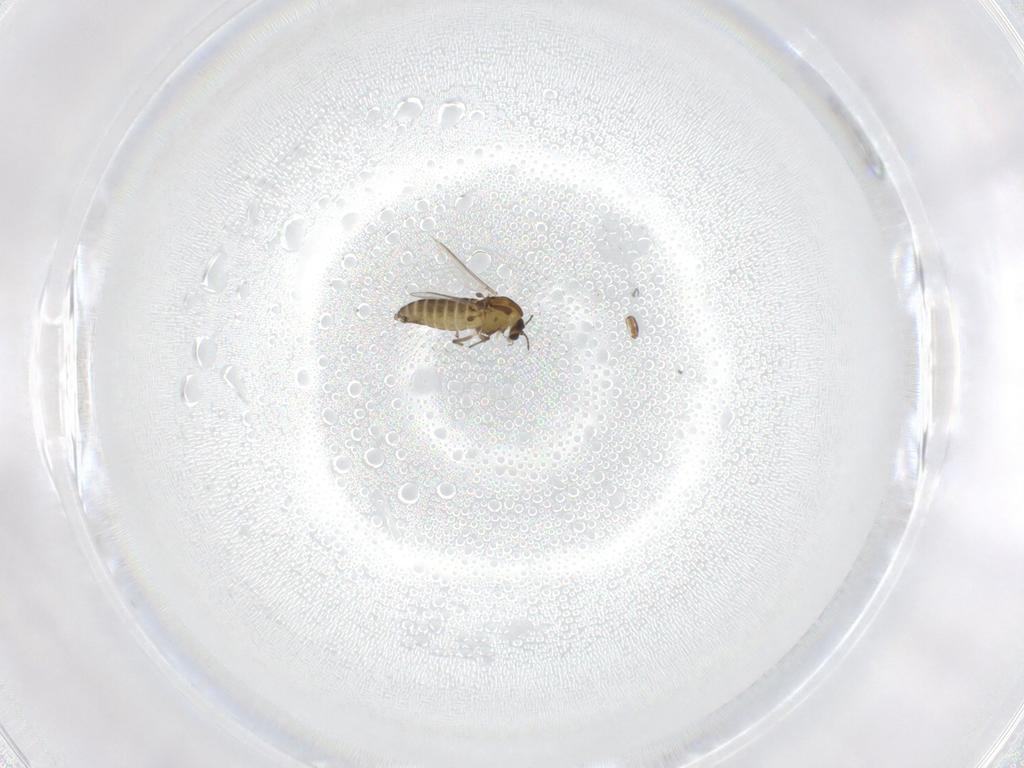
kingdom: Animalia
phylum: Arthropoda
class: Insecta
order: Diptera
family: Chironomidae
